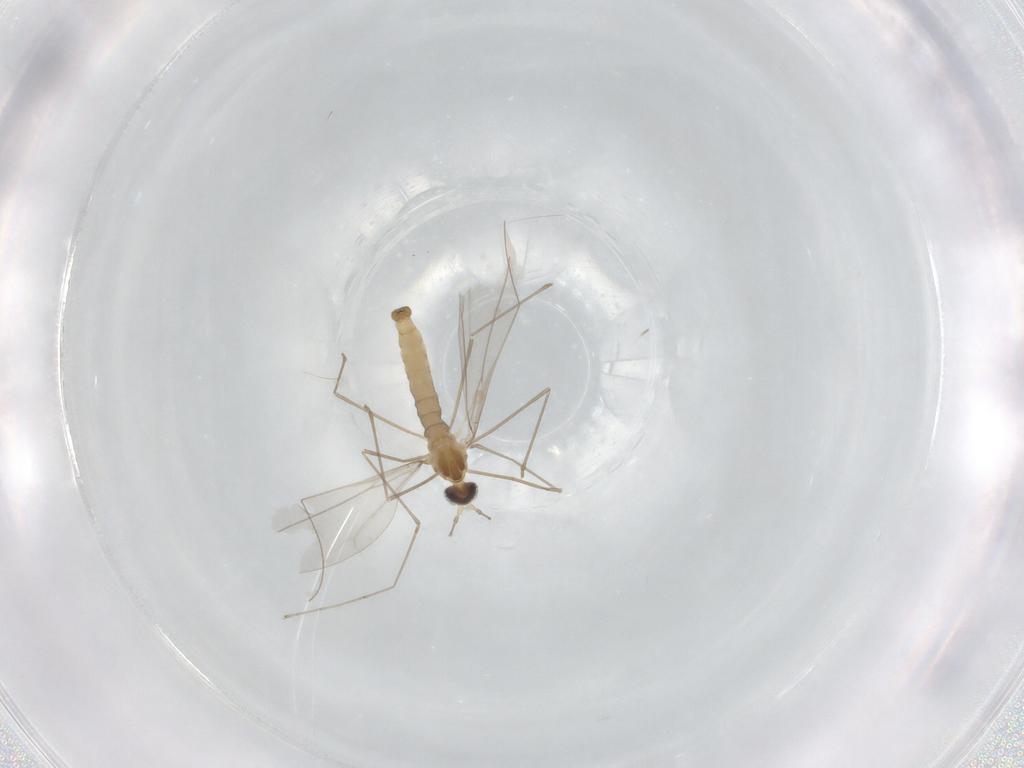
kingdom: Animalia
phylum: Arthropoda
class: Insecta
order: Diptera
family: Cecidomyiidae
